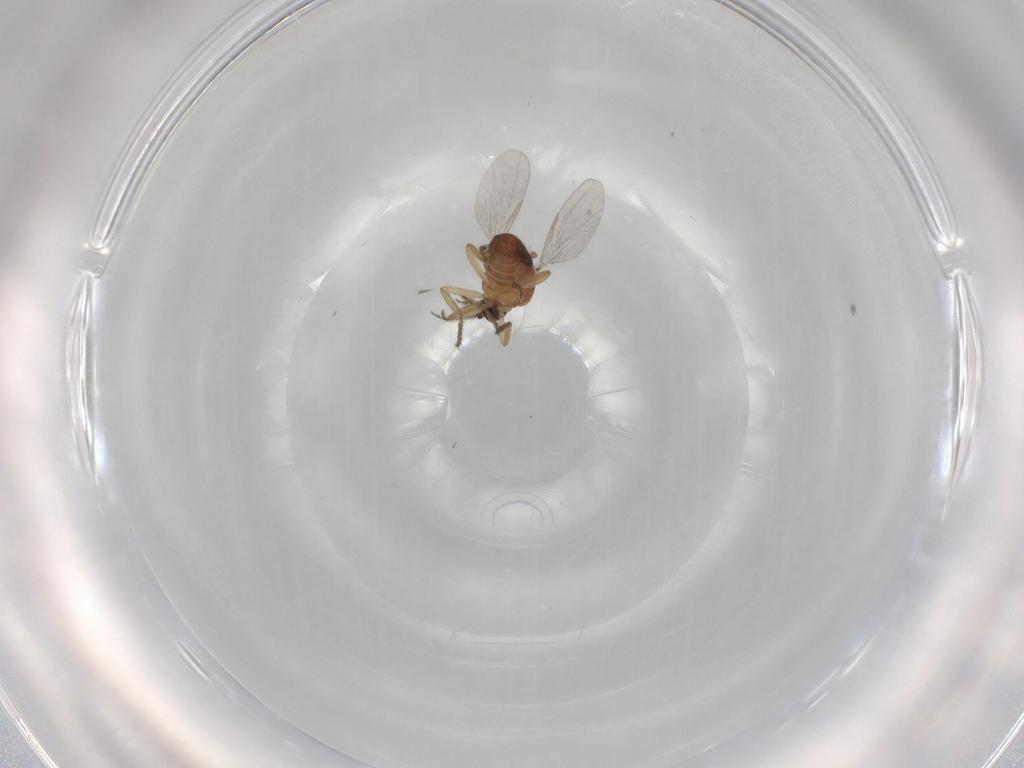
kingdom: Animalia
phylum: Arthropoda
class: Insecta
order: Diptera
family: Ceratopogonidae
